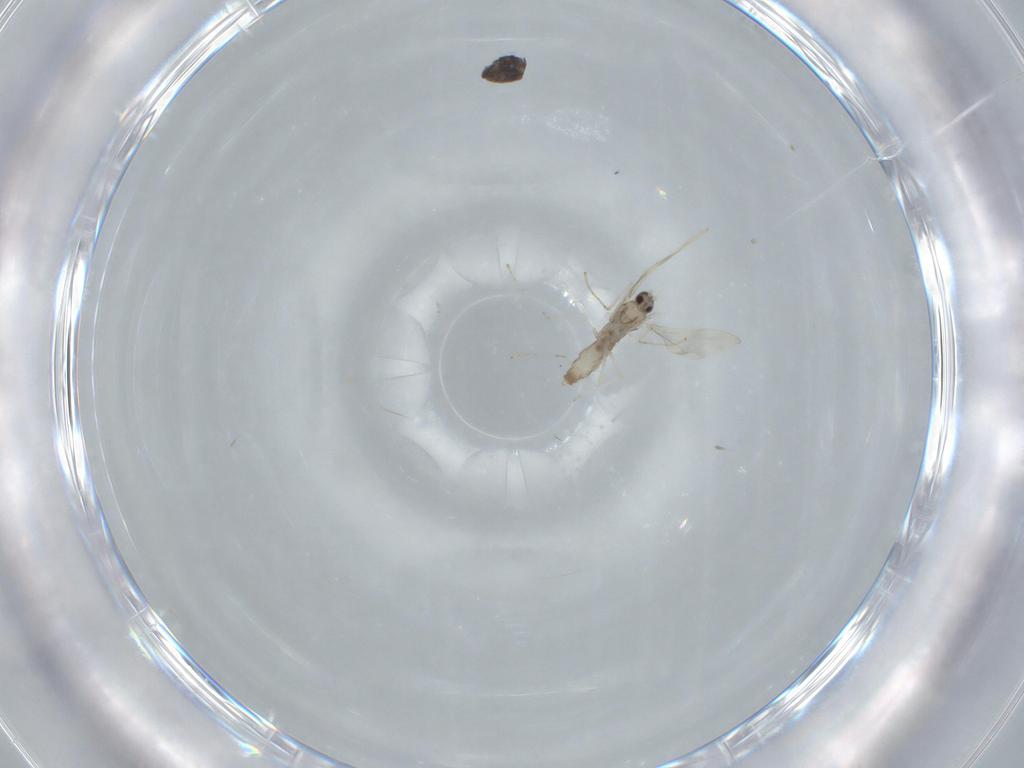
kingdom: Animalia
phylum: Arthropoda
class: Insecta
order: Diptera
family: Cecidomyiidae
